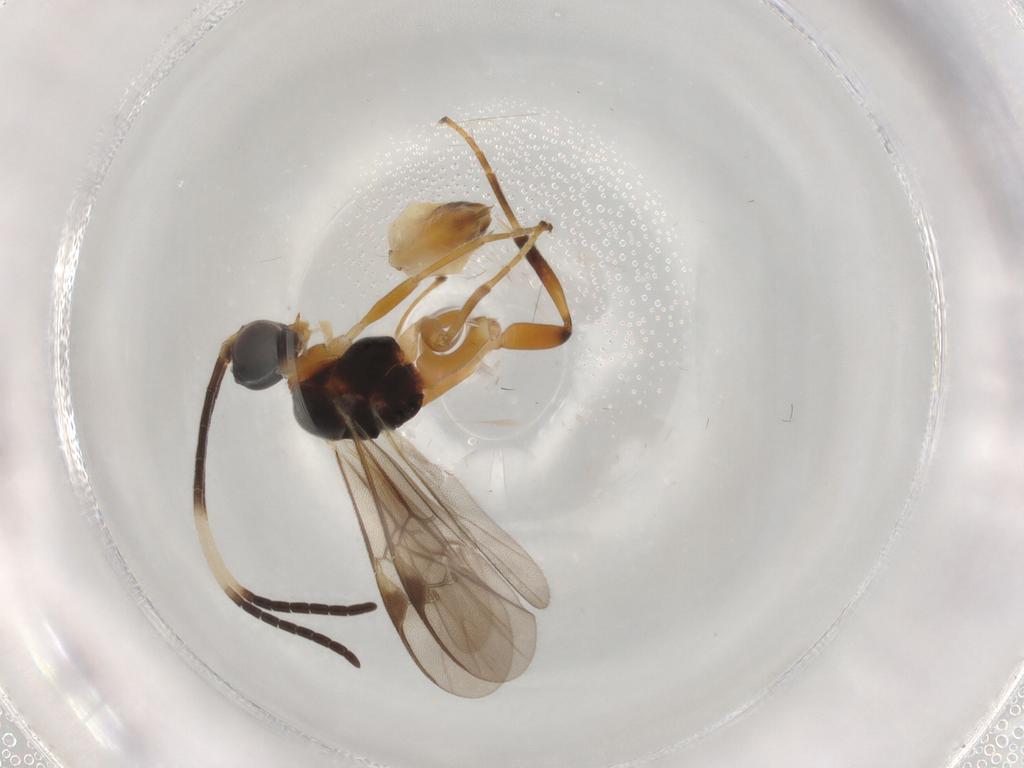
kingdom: Animalia
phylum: Arthropoda
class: Insecta
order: Hymenoptera
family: Braconidae
